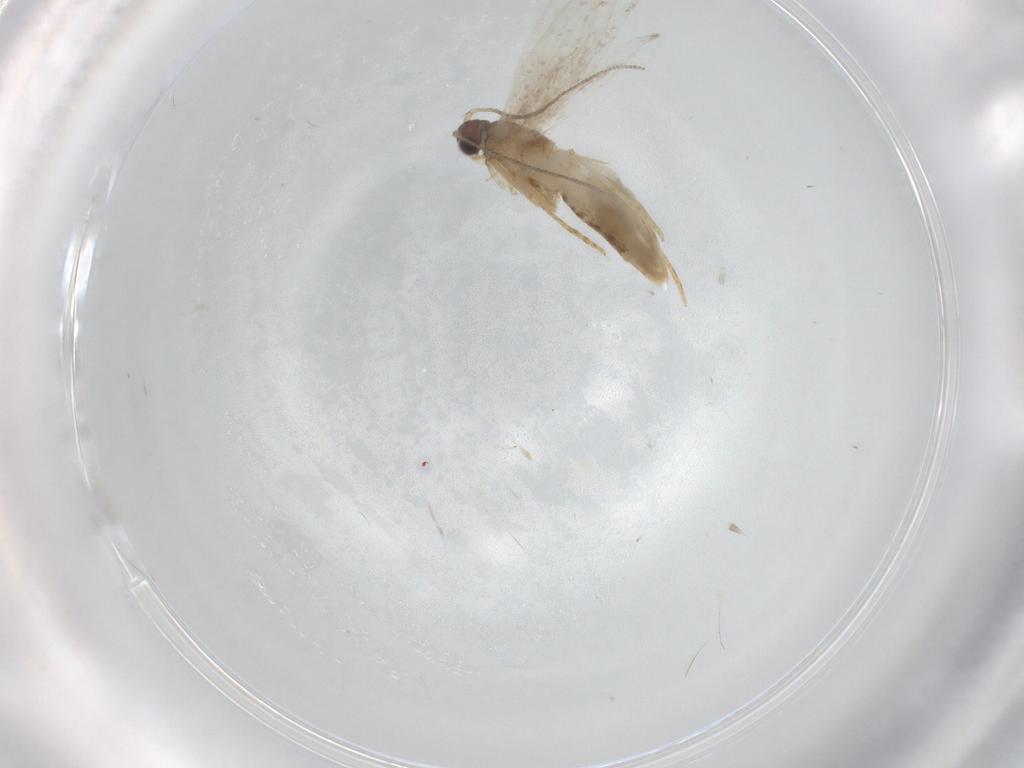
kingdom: Animalia
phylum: Arthropoda
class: Insecta
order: Lepidoptera
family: Tineidae
